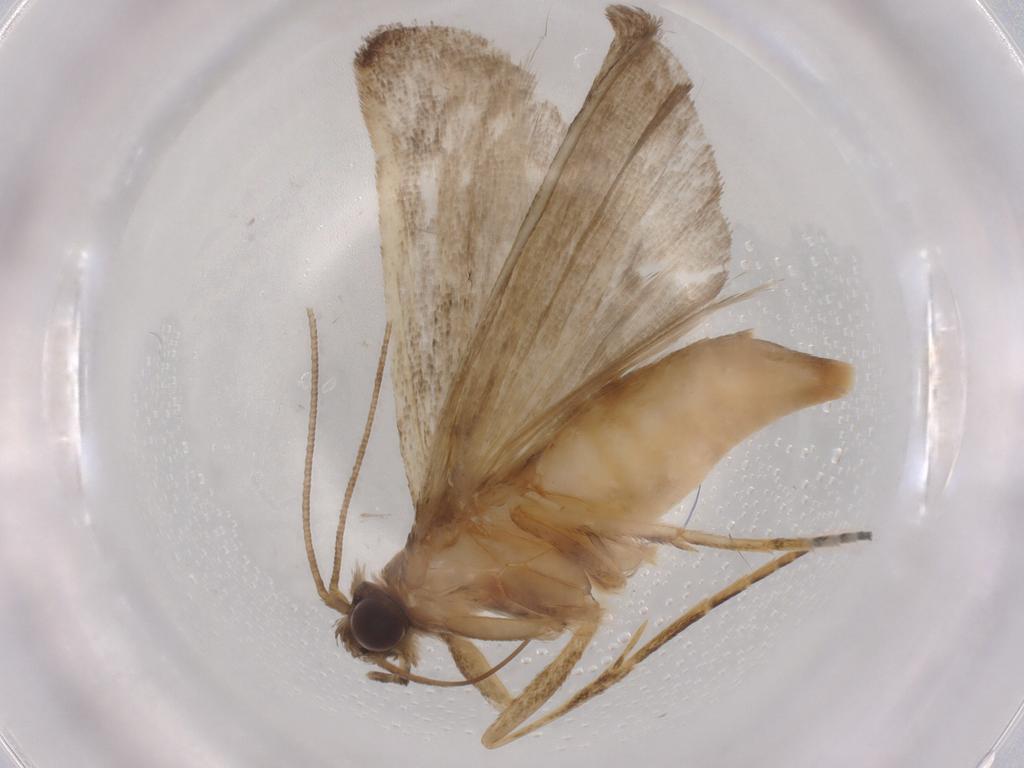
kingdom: Animalia
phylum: Arthropoda
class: Insecta
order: Lepidoptera
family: Noctuidae
